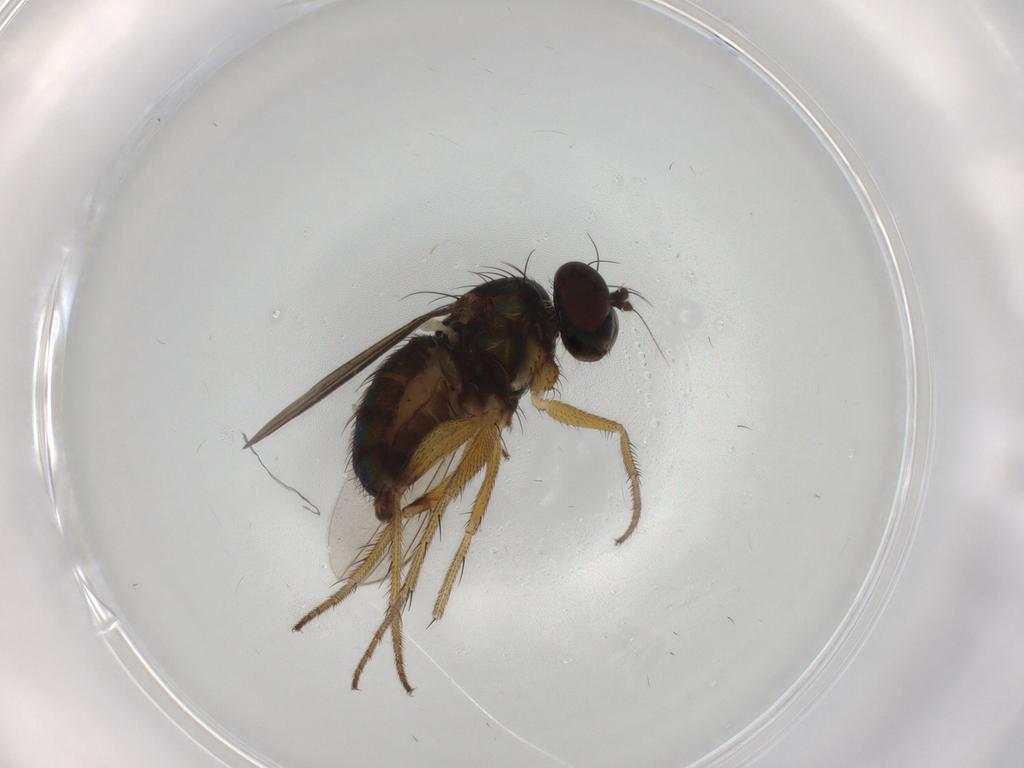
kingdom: Animalia
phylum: Arthropoda
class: Insecta
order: Diptera
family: Dolichopodidae
